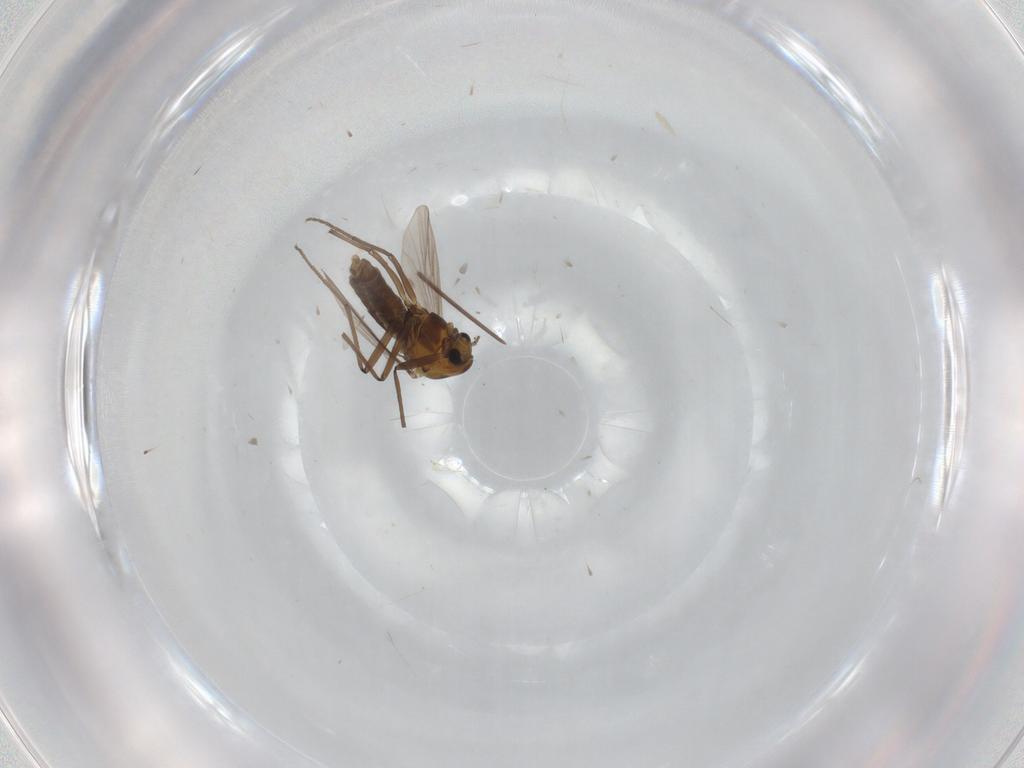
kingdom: Animalia
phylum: Arthropoda
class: Insecta
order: Diptera
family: Chironomidae
